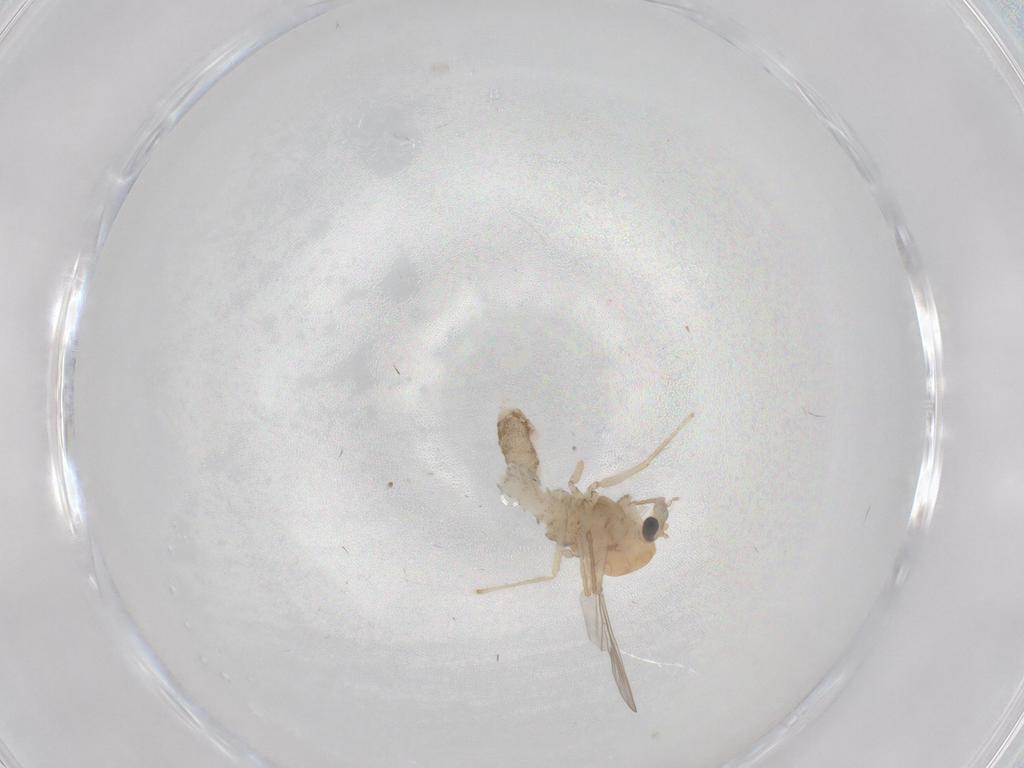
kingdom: Animalia
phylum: Arthropoda
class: Insecta
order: Diptera
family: Chironomidae
